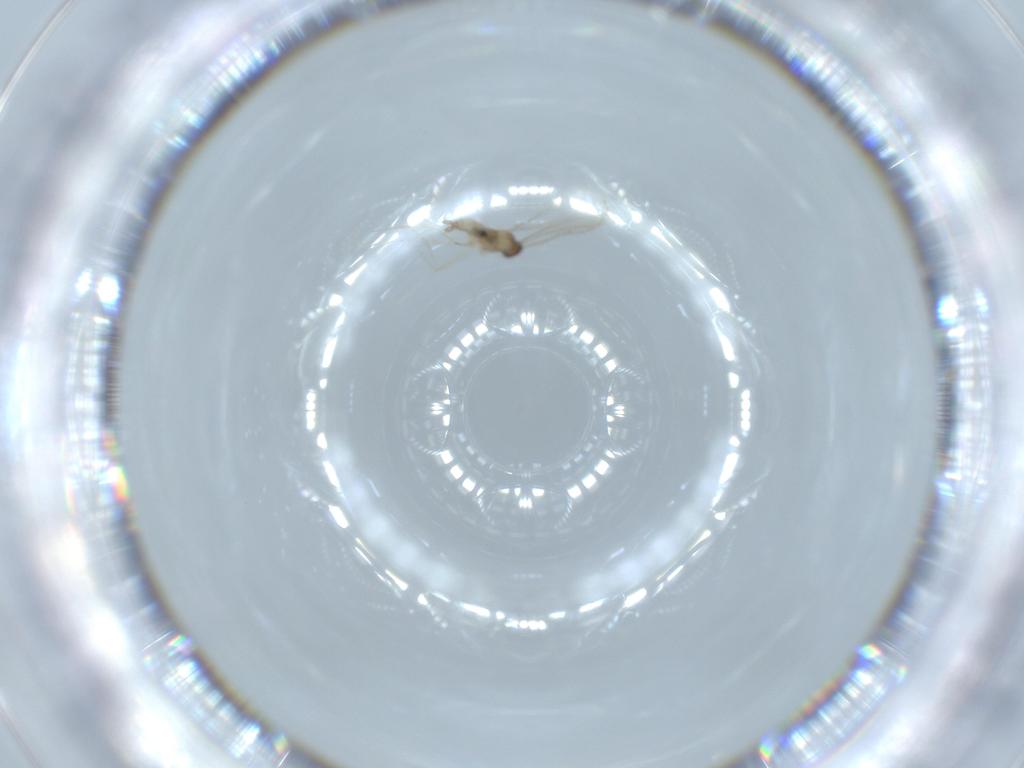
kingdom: Animalia
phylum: Arthropoda
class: Insecta
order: Diptera
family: Cecidomyiidae
